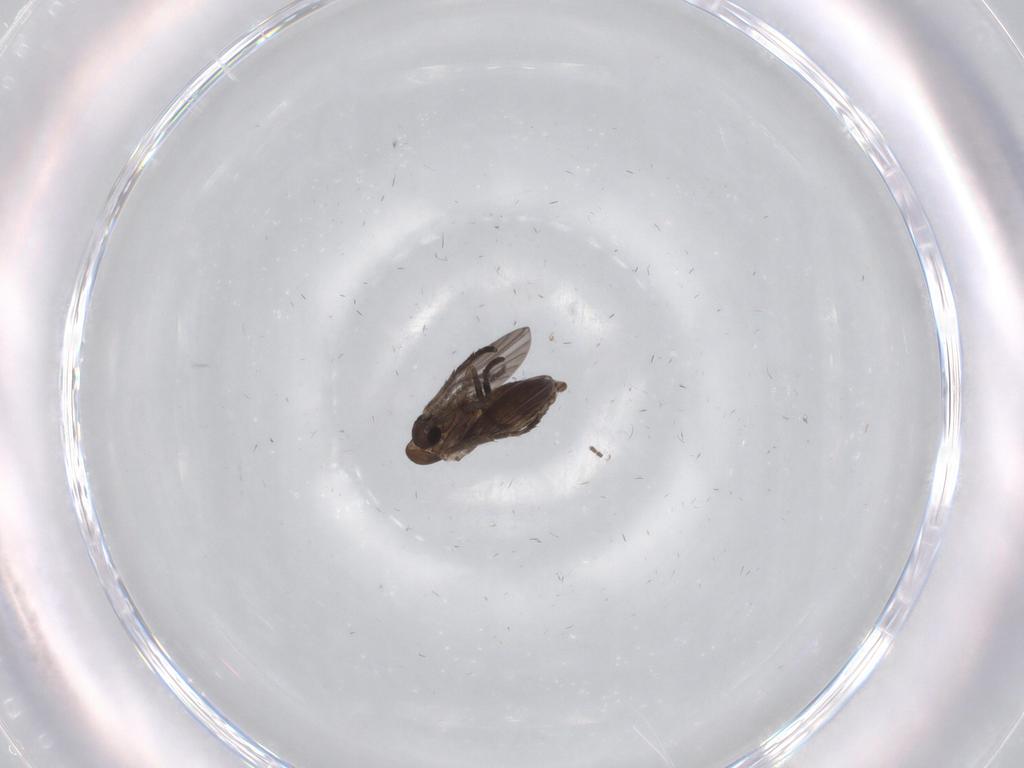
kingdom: Animalia
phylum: Arthropoda
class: Insecta
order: Diptera
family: Sciaridae
